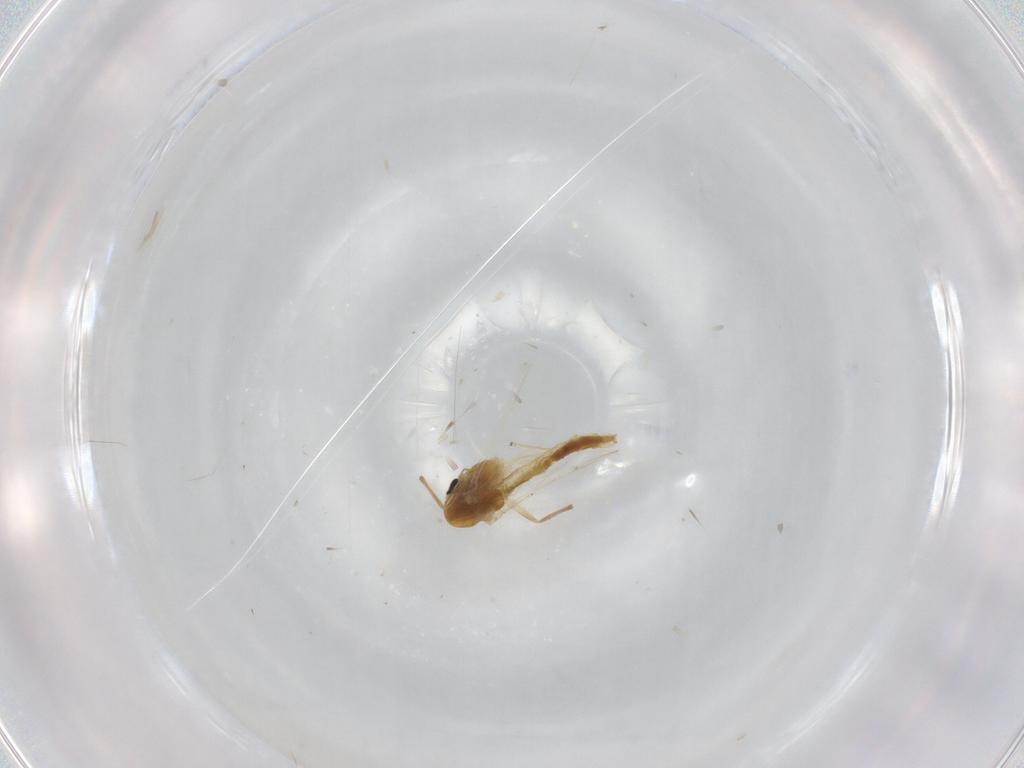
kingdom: Animalia
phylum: Arthropoda
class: Insecta
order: Diptera
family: Chironomidae
